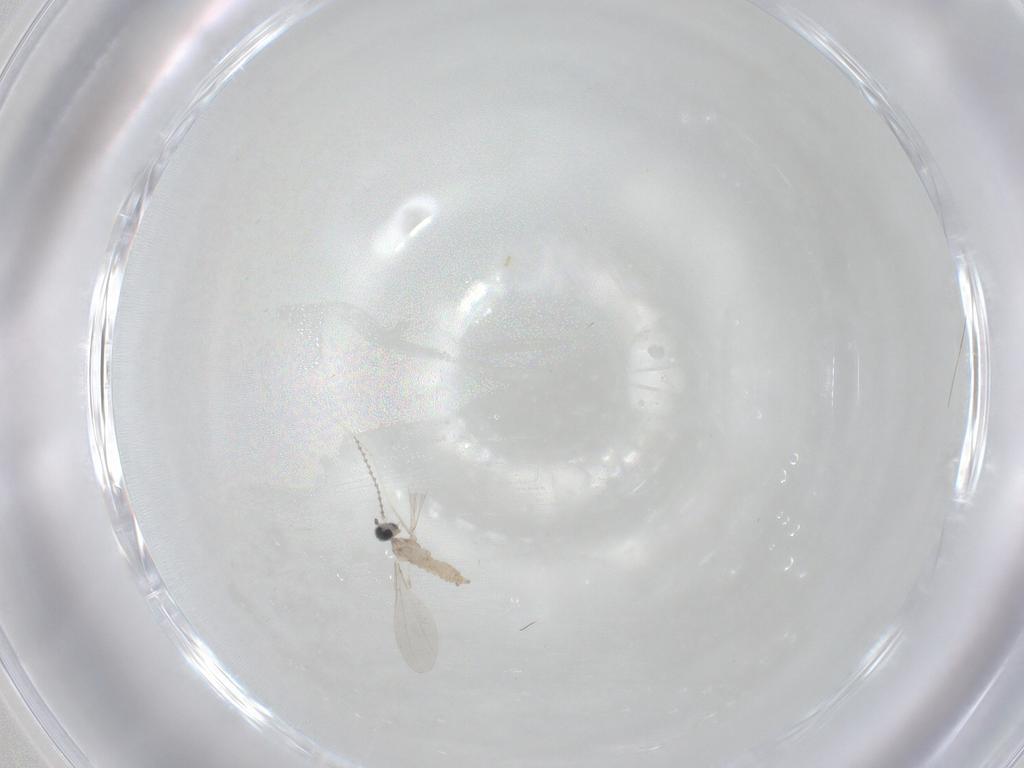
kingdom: Animalia
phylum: Arthropoda
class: Insecta
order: Diptera
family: Cecidomyiidae
